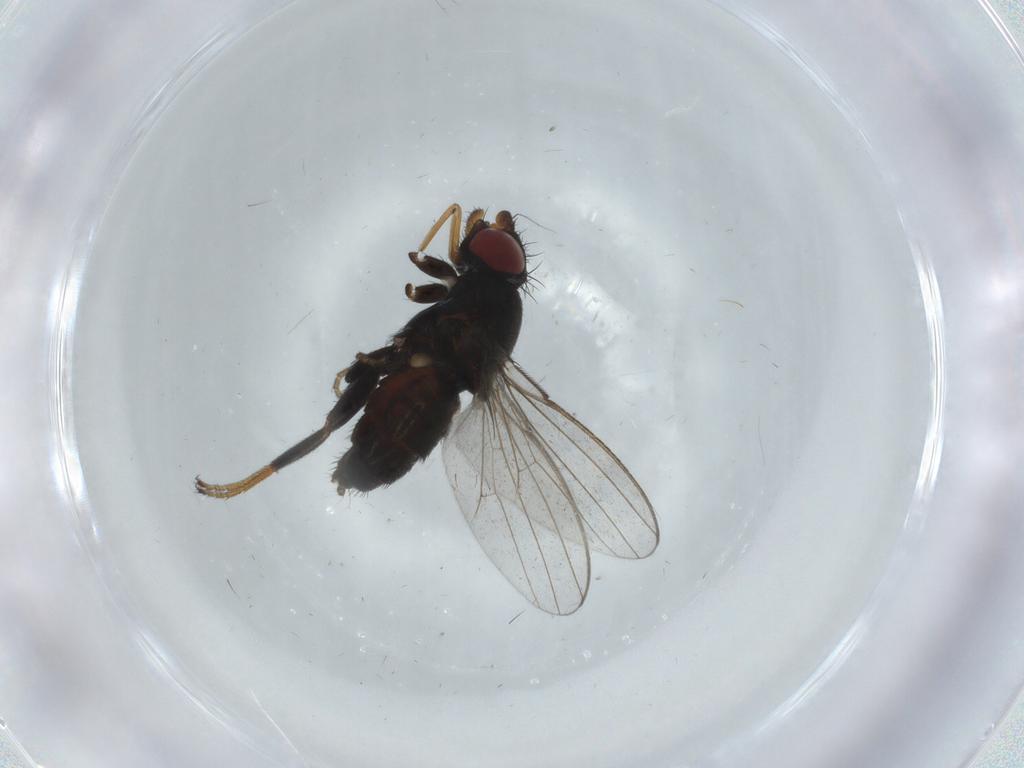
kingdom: Animalia
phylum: Arthropoda
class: Insecta
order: Diptera
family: Milichiidae
